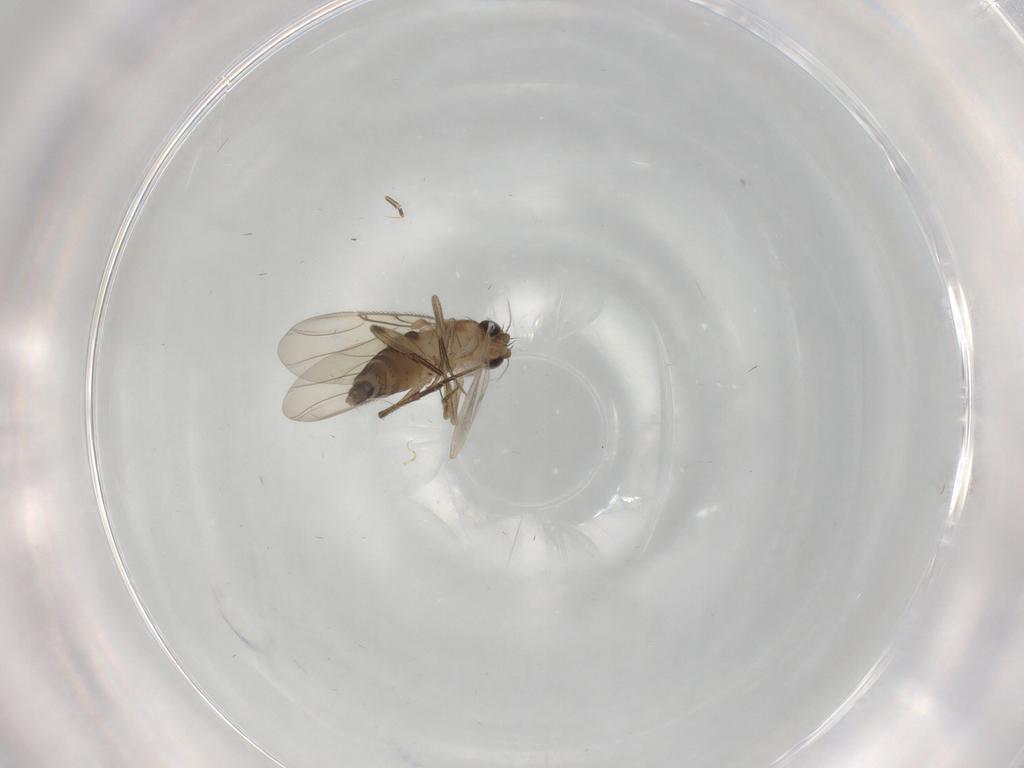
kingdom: Animalia
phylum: Arthropoda
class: Insecta
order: Diptera
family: Phoridae
